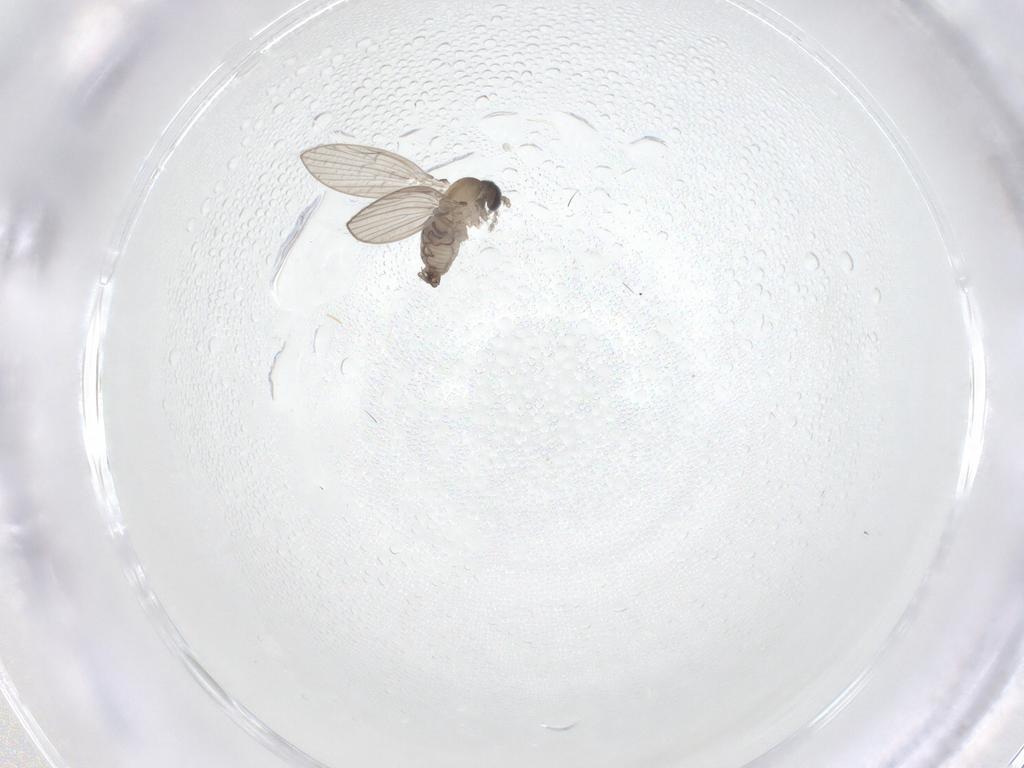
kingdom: Animalia
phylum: Arthropoda
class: Insecta
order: Diptera
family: Psychodidae
